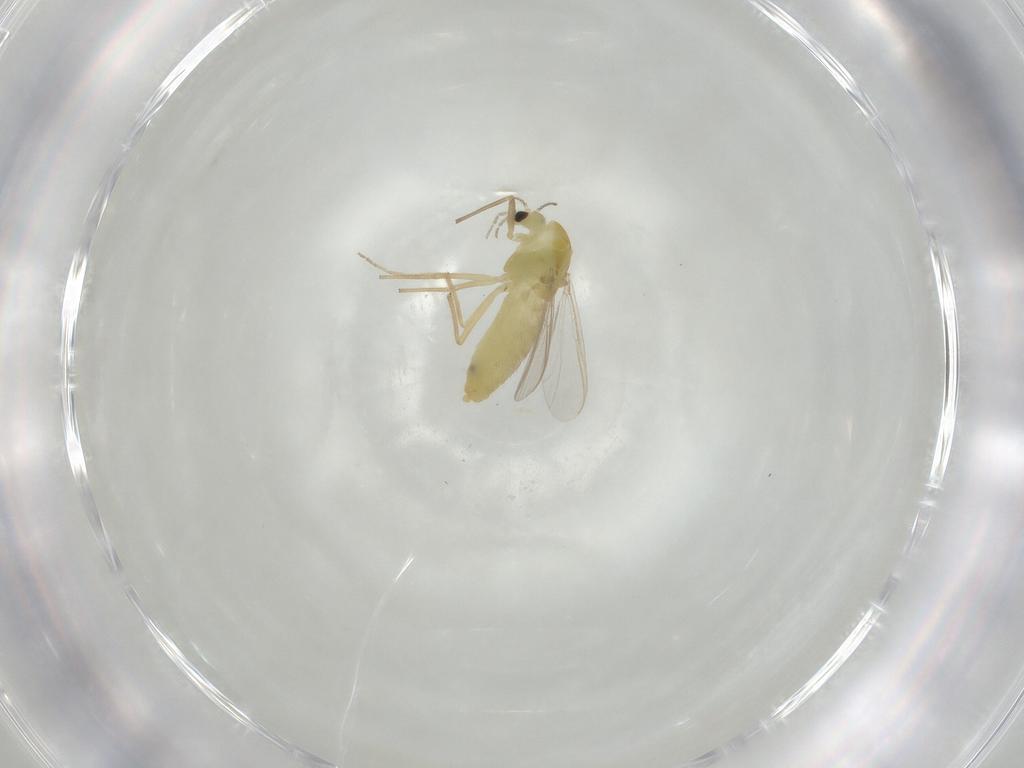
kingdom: Animalia
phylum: Arthropoda
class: Insecta
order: Diptera
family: Chironomidae
